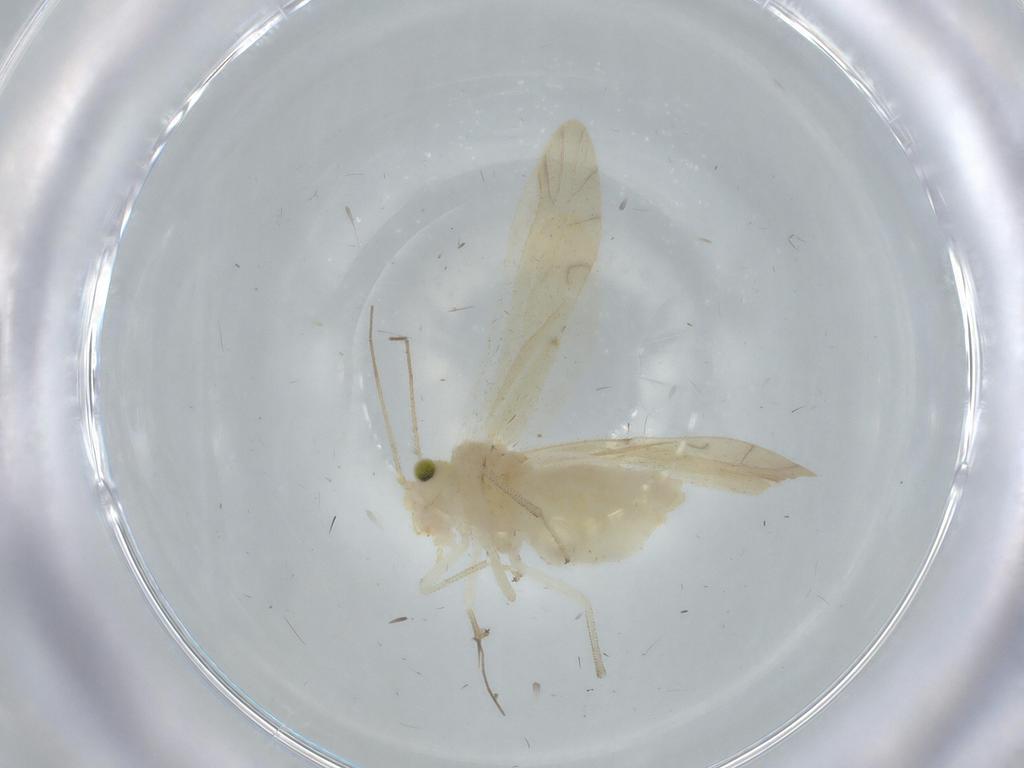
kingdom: Animalia
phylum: Arthropoda
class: Insecta
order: Psocodea
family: Caeciliusidae
